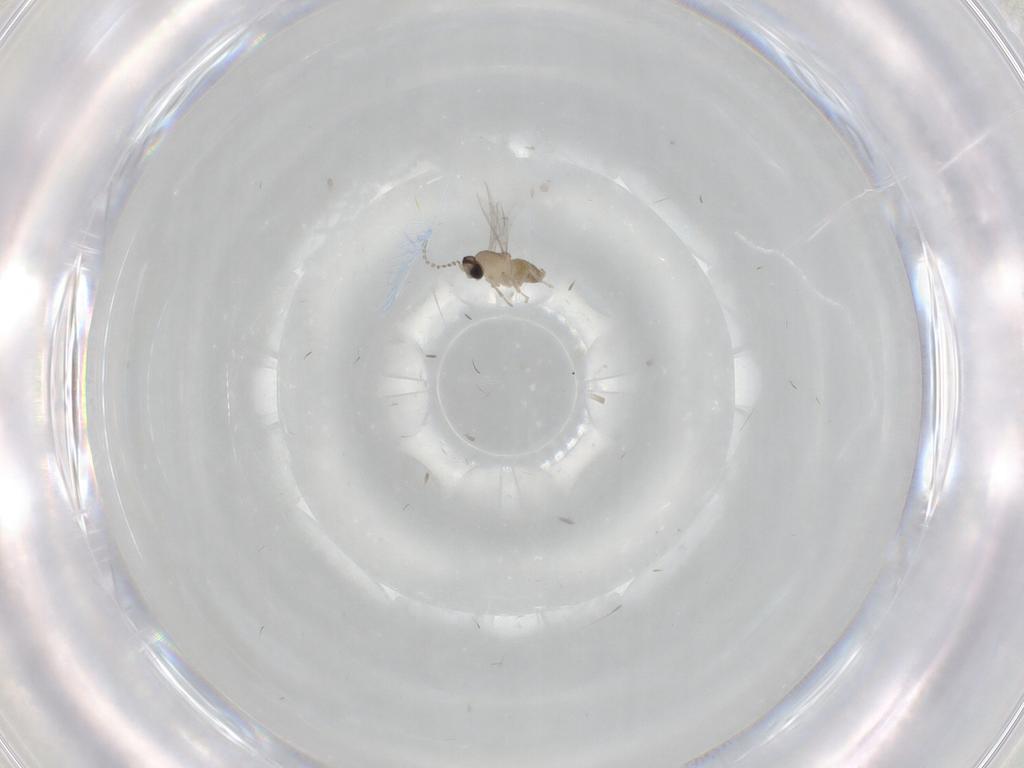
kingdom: Animalia
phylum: Arthropoda
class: Insecta
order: Diptera
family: Cecidomyiidae
